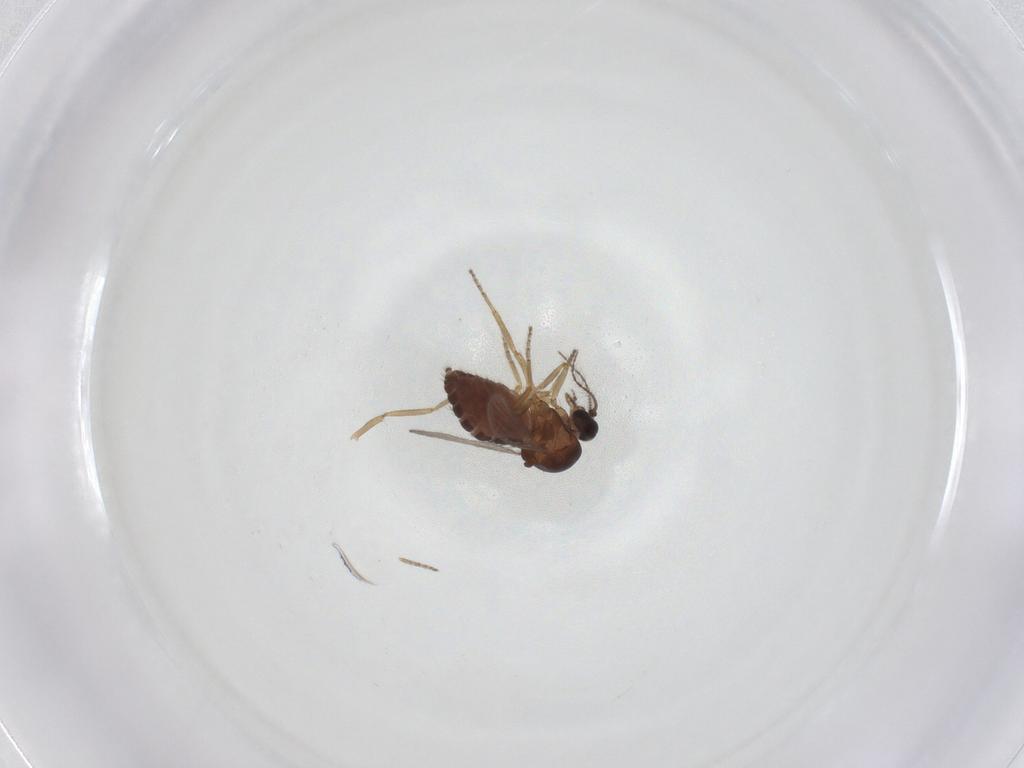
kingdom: Animalia
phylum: Arthropoda
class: Insecta
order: Diptera
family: Ceratopogonidae
